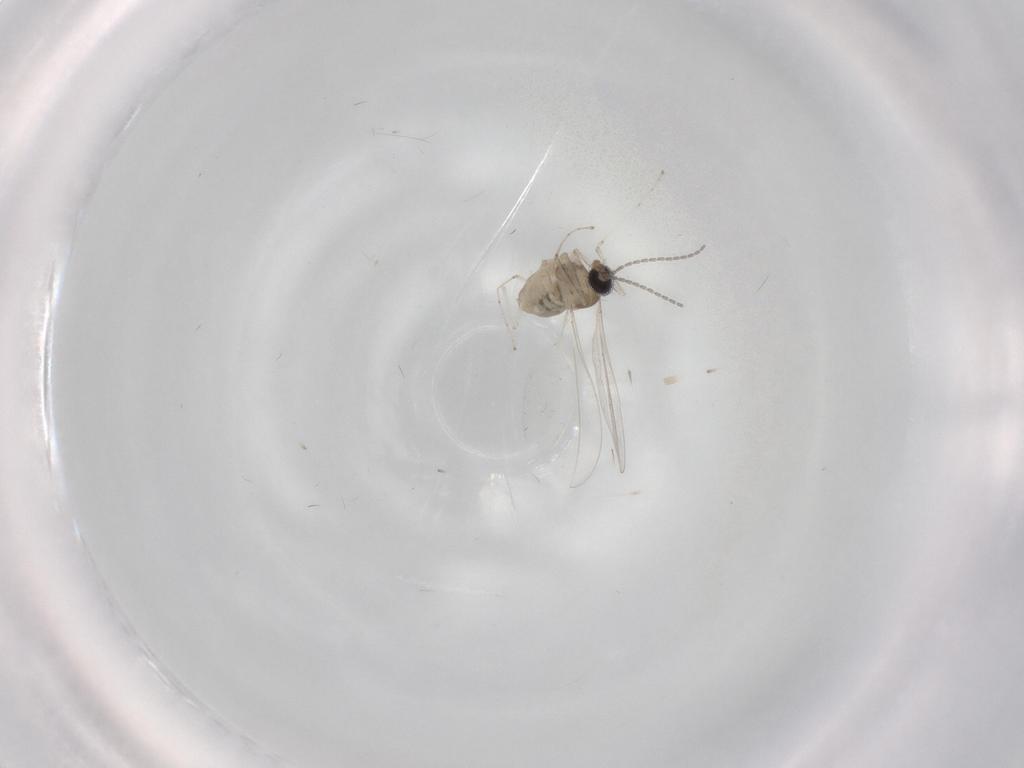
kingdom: Animalia
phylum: Arthropoda
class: Insecta
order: Diptera
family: Cecidomyiidae
